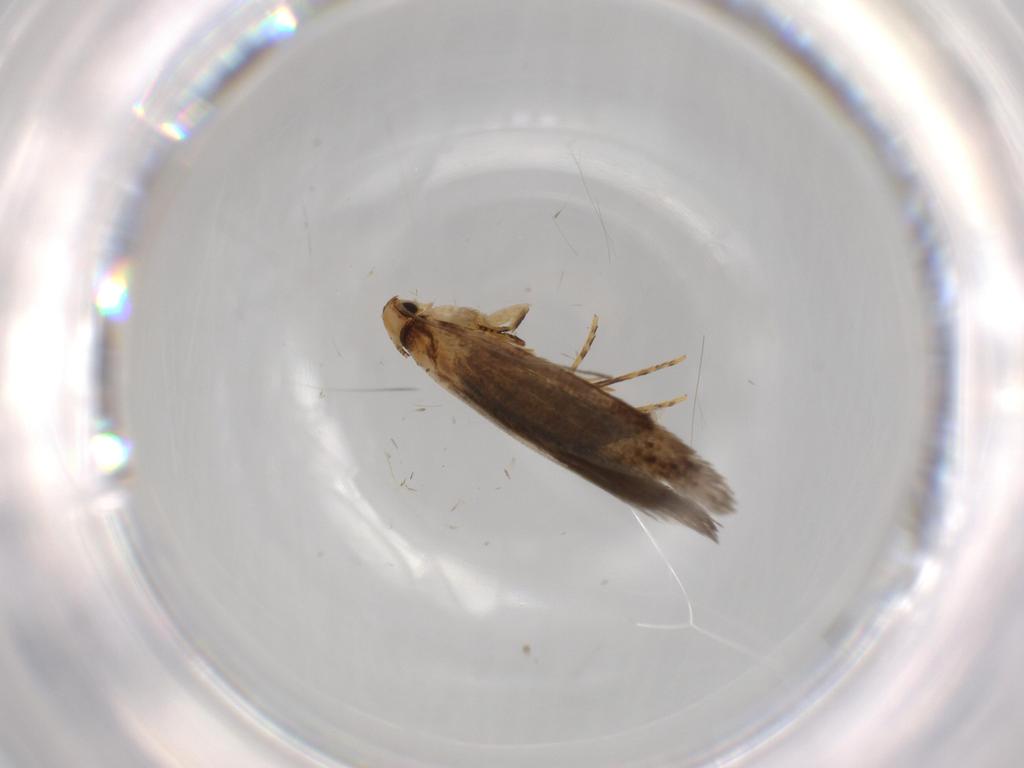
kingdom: Animalia
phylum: Arthropoda
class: Insecta
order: Lepidoptera
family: Tineidae
